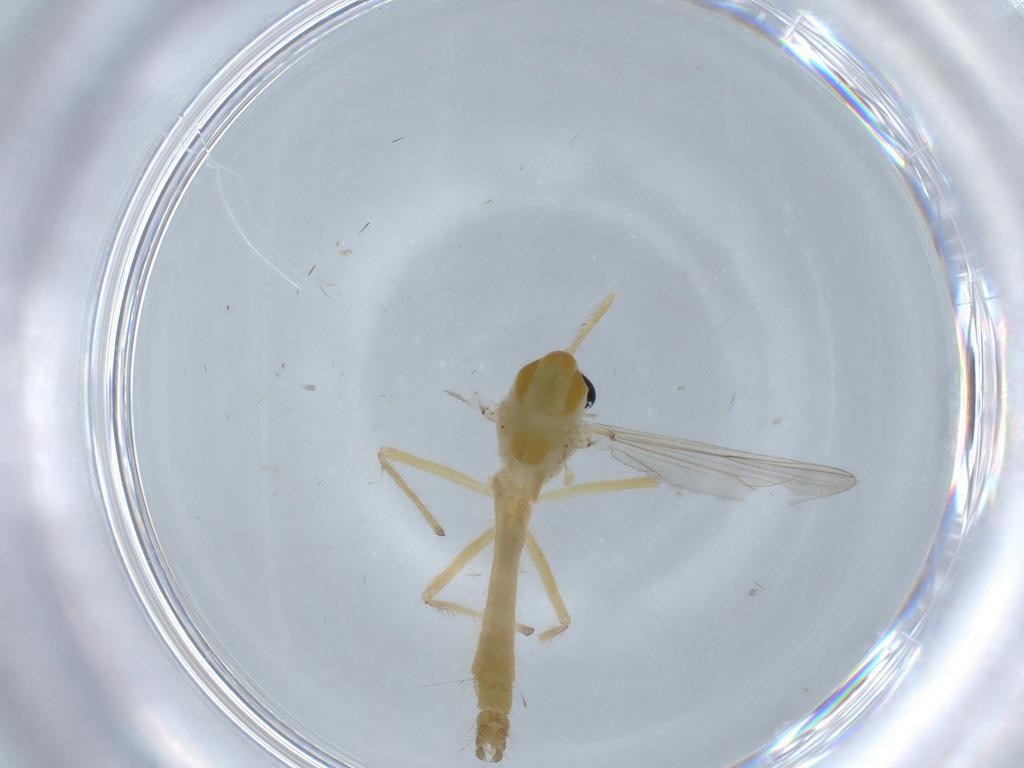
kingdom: Animalia
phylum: Arthropoda
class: Insecta
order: Diptera
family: Chironomidae
